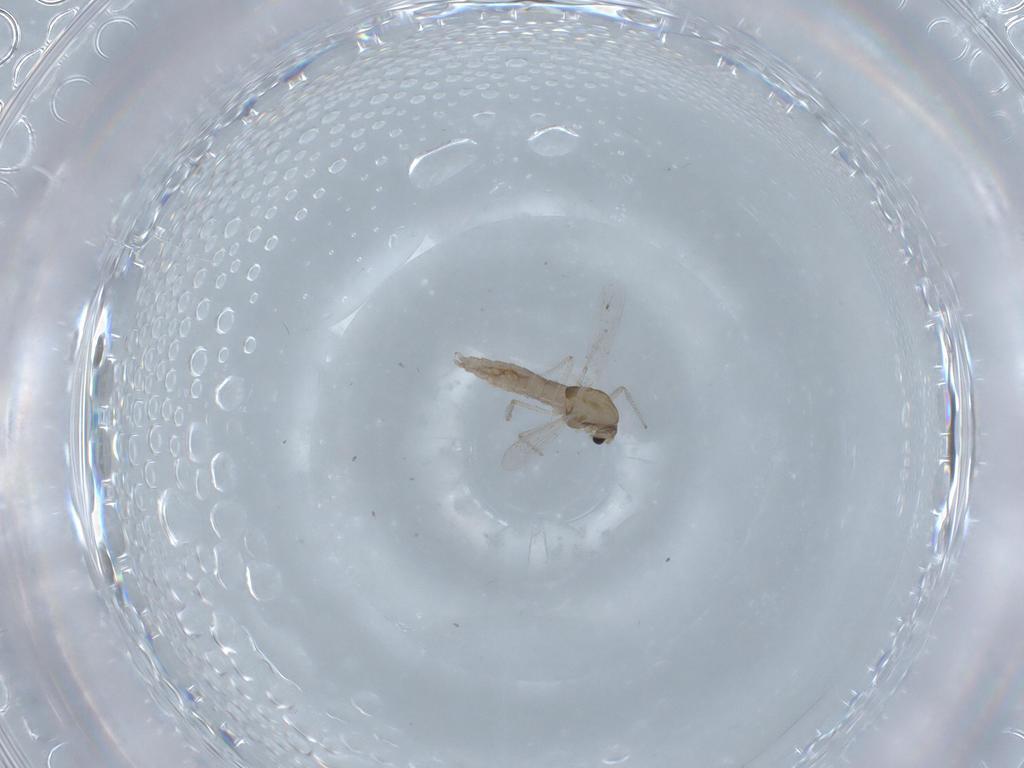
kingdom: Animalia
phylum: Arthropoda
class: Insecta
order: Diptera
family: Chironomidae
